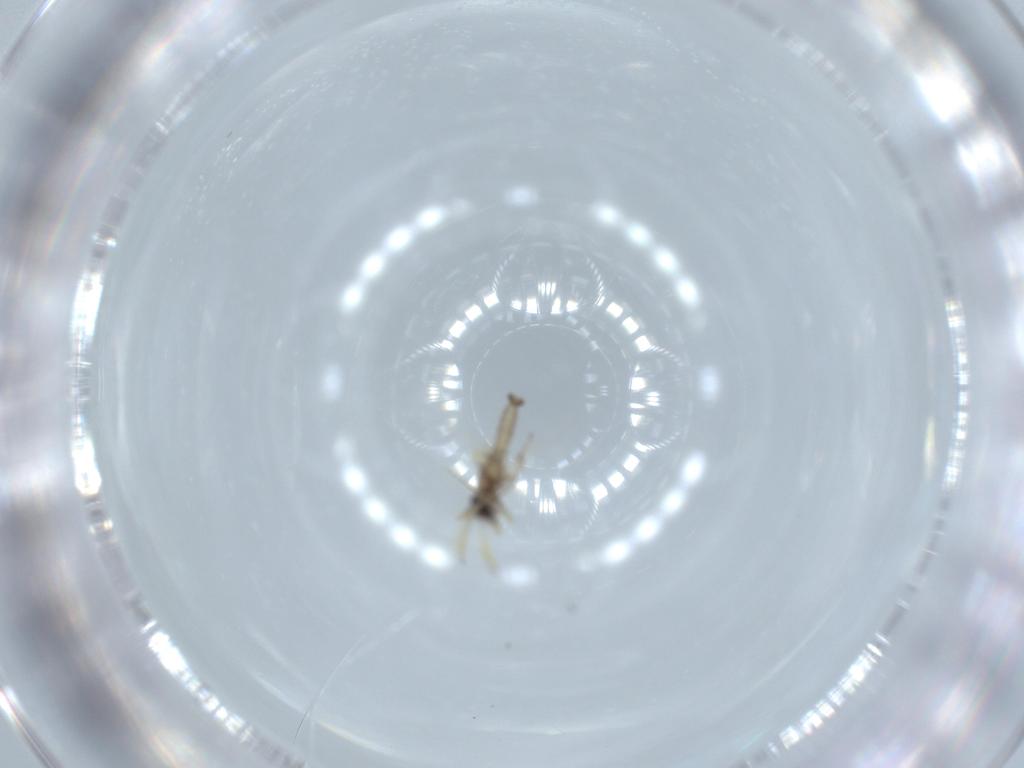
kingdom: Animalia
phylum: Arthropoda
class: Insecta
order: Diptera
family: Ceratopogonidae
